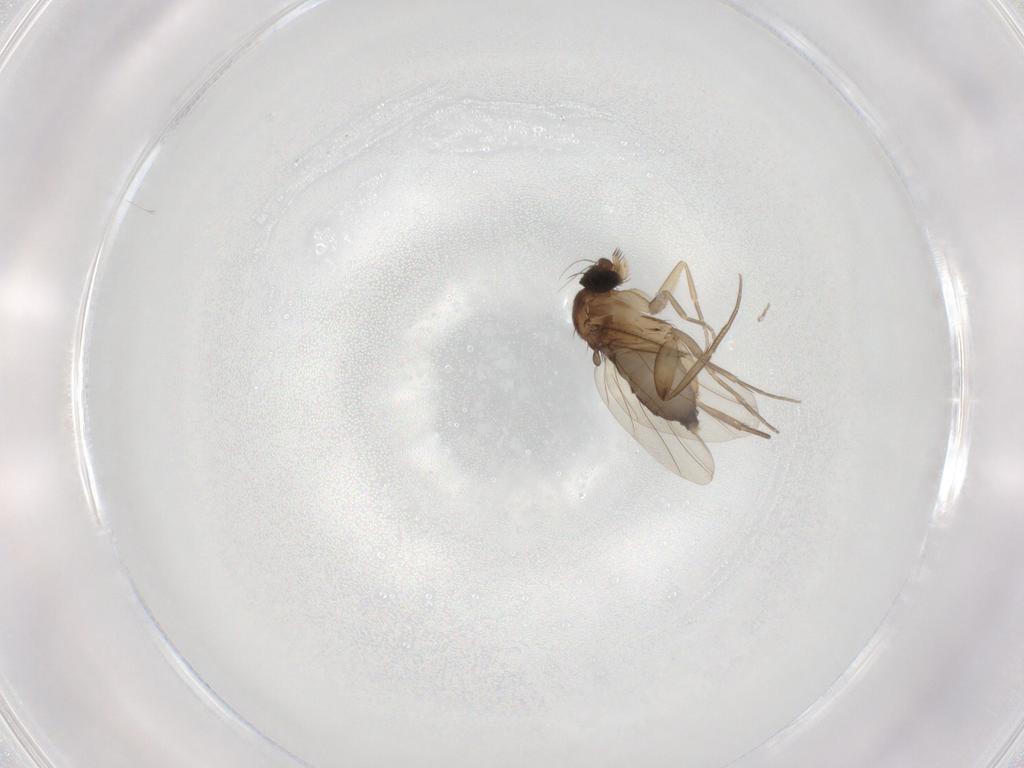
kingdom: Animalia
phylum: Arthropoda
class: Insecta
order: Diptera
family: Phoridae
